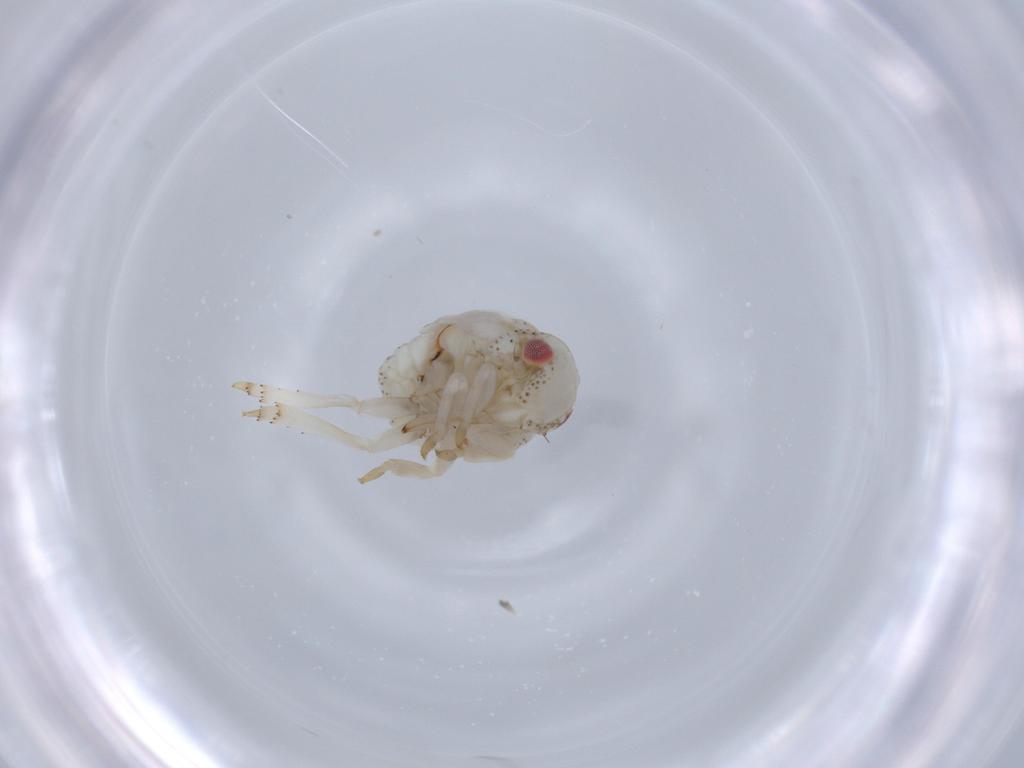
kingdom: Animalia
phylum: Arthropoda
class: Insecta
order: Hemiptera
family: Acanaloniidae
